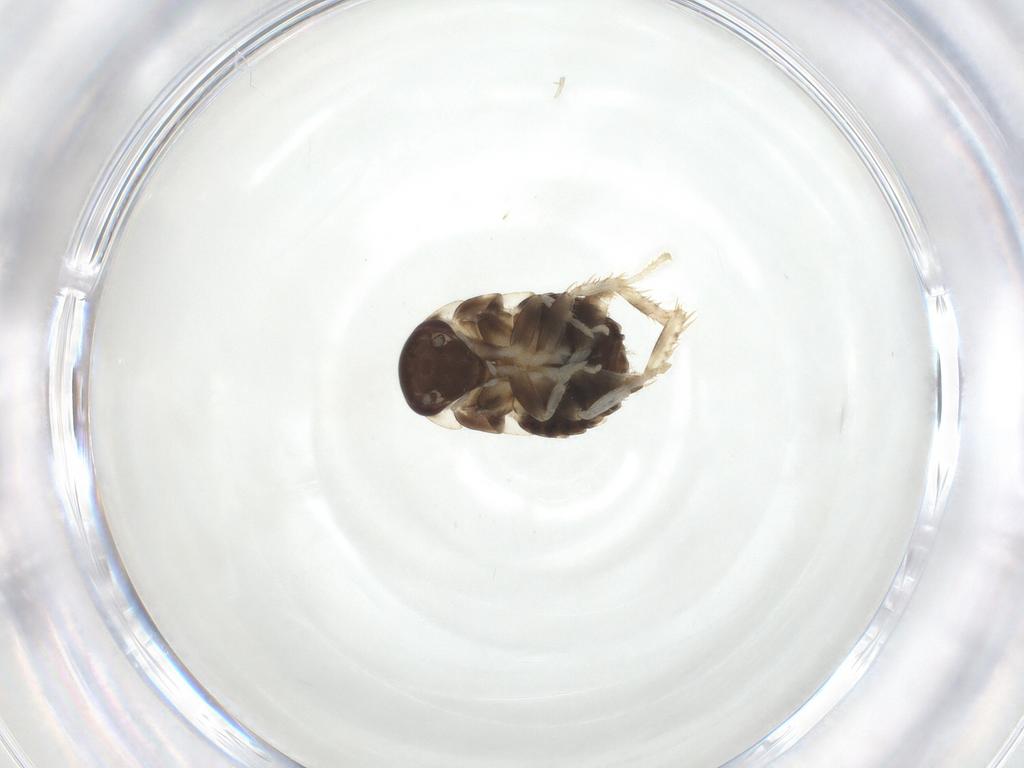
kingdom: Animalia
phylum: Arthropoda
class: Insecta
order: Blattodea
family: Ectobiidae
